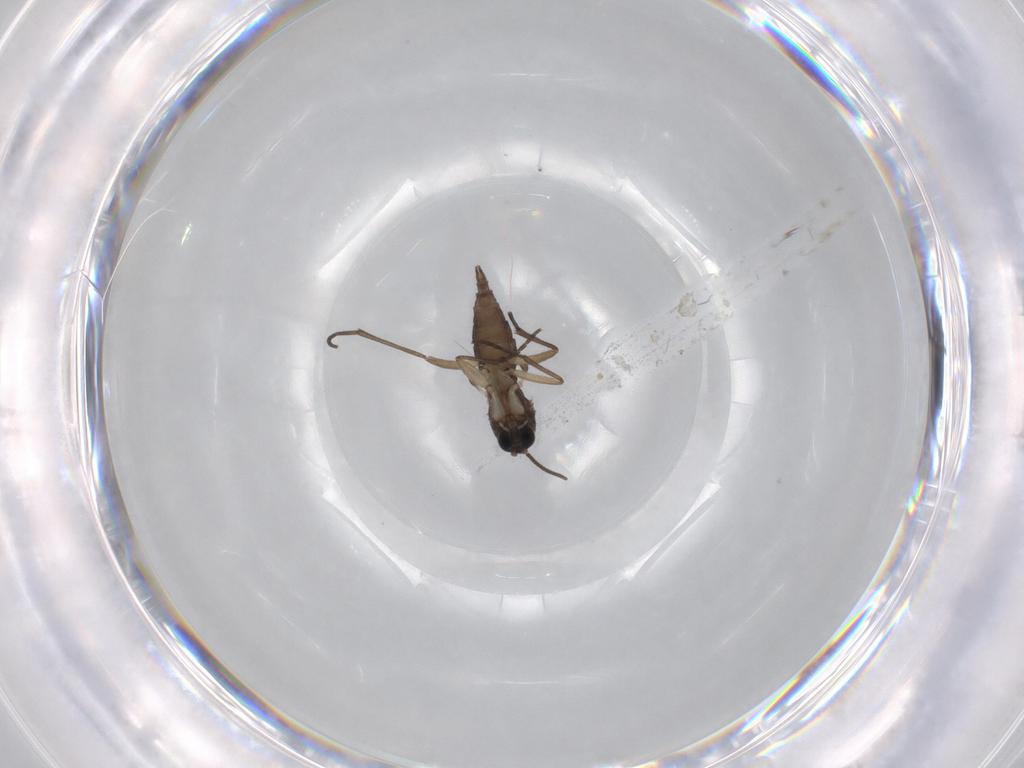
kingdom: Animalia
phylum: Arthropoda
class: Insecta
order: Diptera
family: Sciaridae
